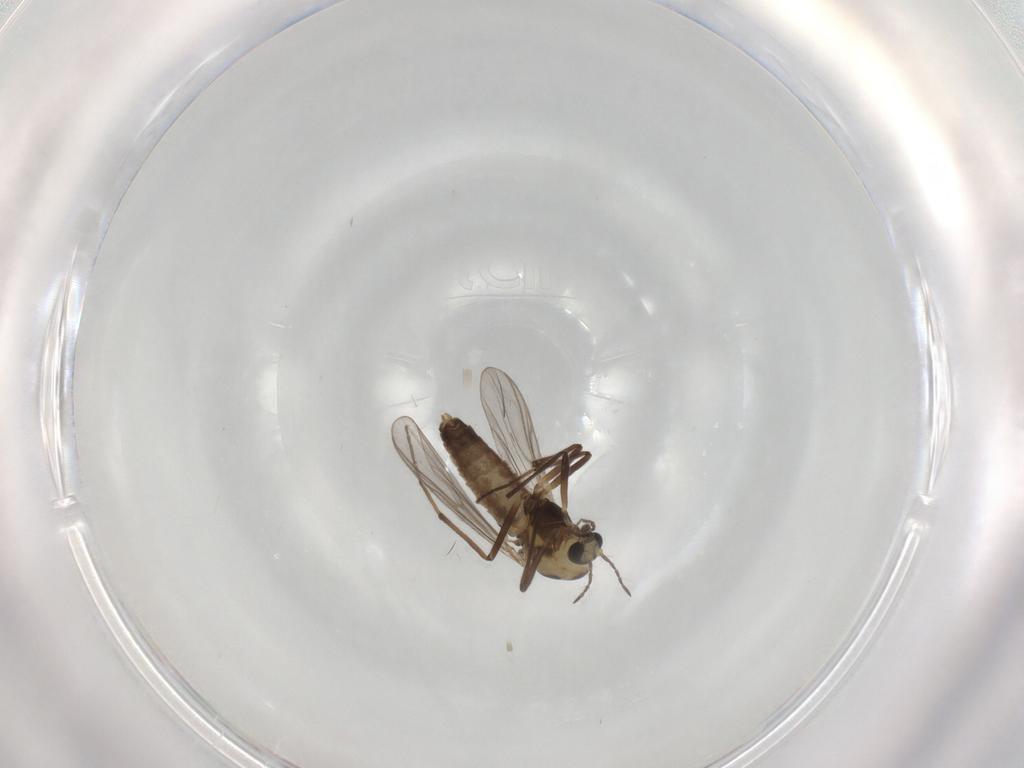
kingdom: Animalia
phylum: Arthropoda
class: Insecta
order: Diptera
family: Chironomidae
